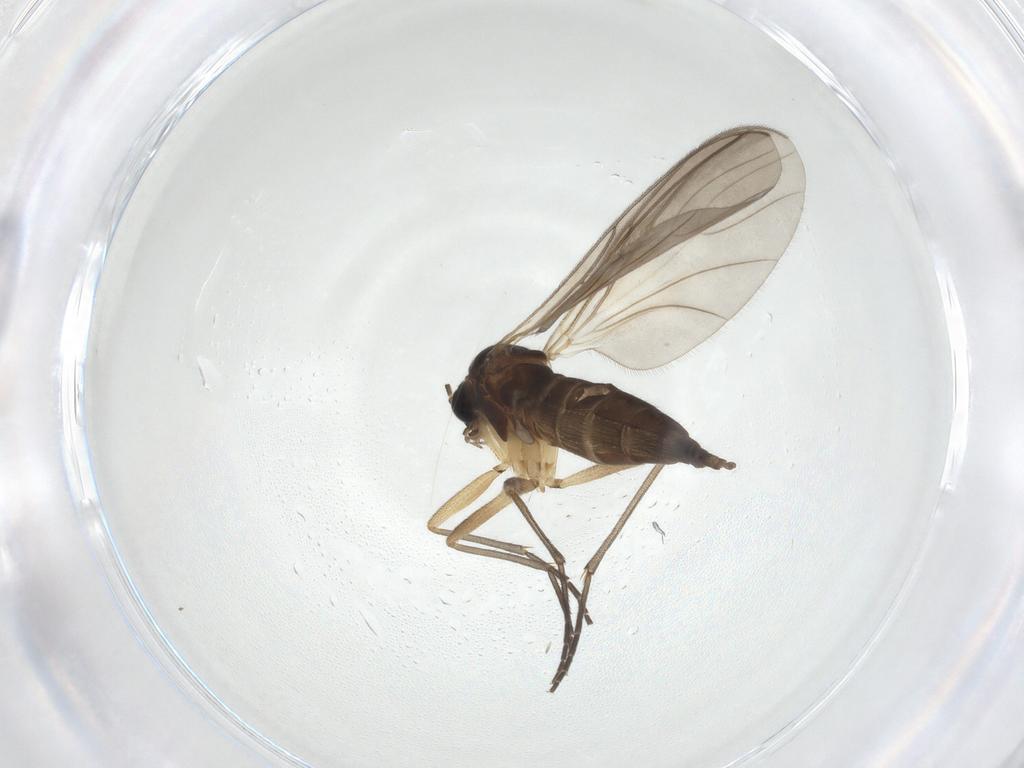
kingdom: Animalia
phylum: Arthropoda
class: Insecta
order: Diptera
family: Sciaridae
